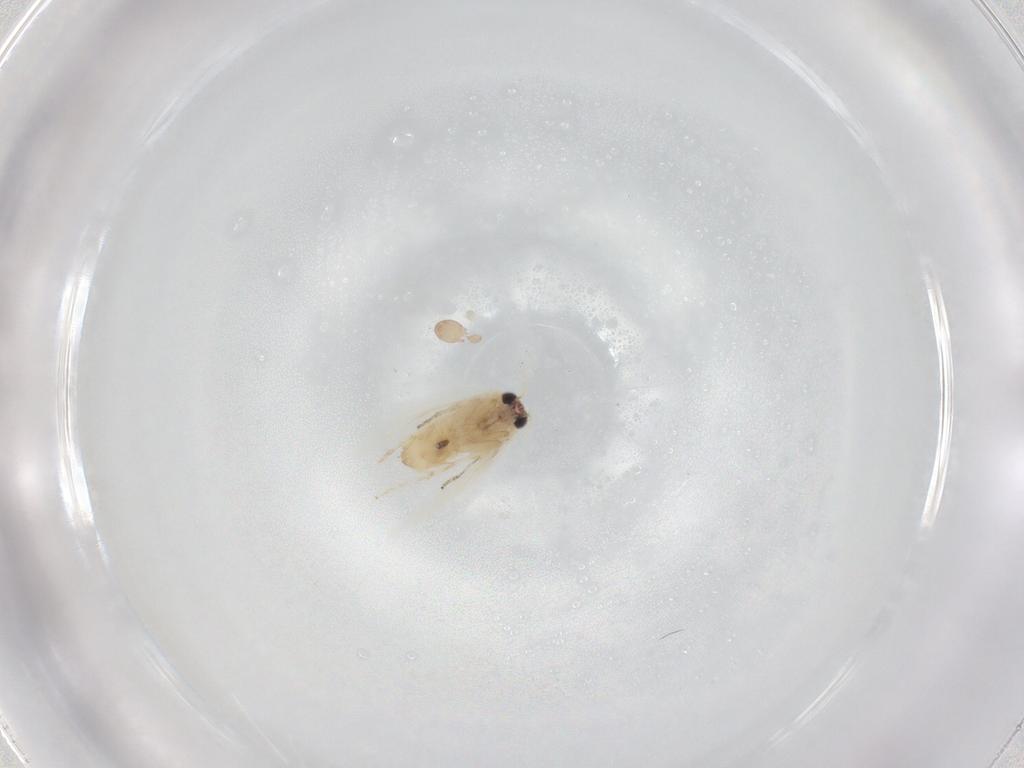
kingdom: Animalia
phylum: Arthropoda
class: Insecta
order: Lepidoptera
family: Nepticulidae
